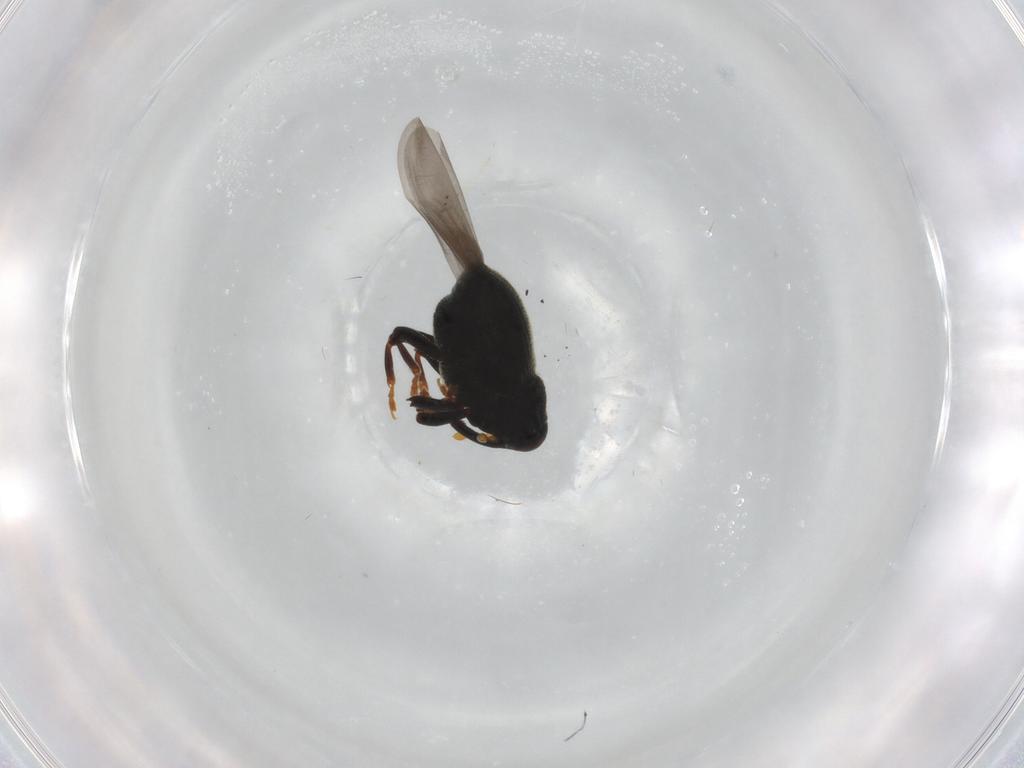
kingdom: Animalia
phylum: Arthropoda
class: Insecta
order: Coleoptera
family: Curculionidae
